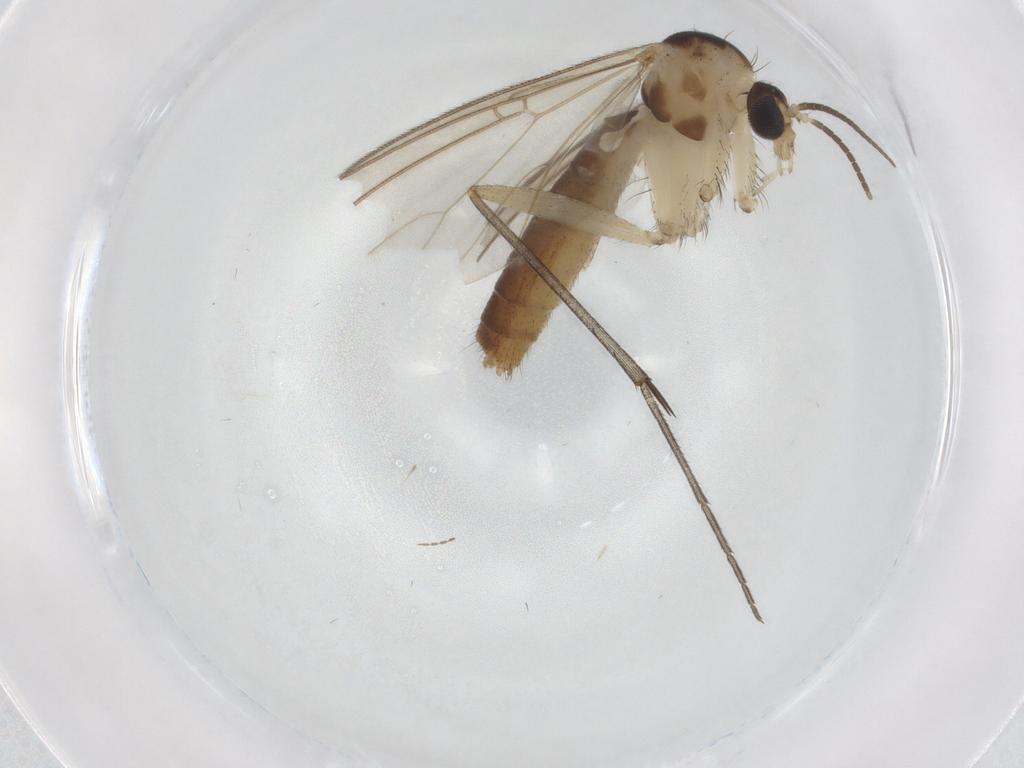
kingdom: Animalia
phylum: Arthropoda
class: Insecta
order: Diptera
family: Mycetophilidae
